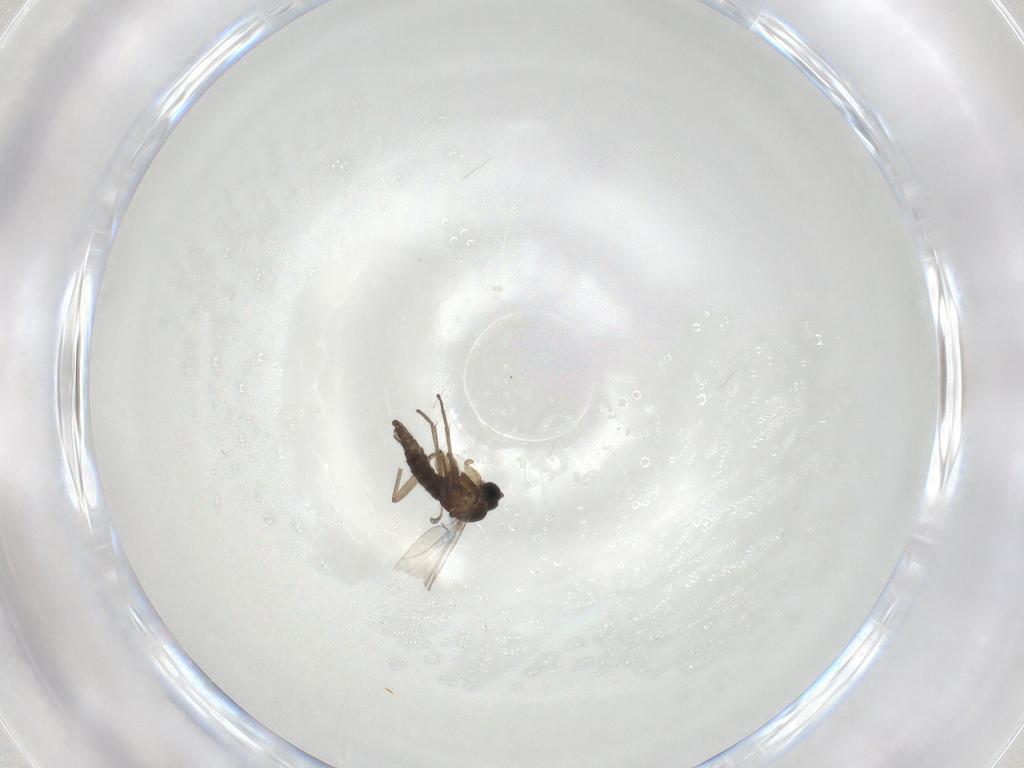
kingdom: Animalia
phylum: Arthropoda
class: Insecta
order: Diptera
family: Sciaridae
